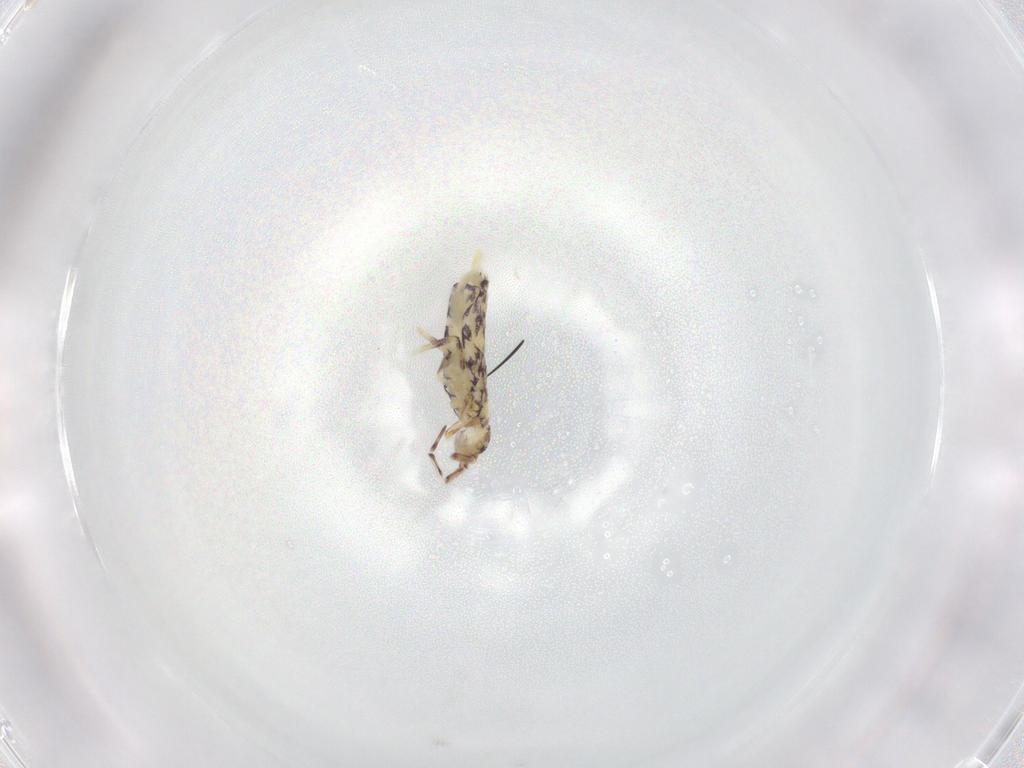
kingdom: Animalia
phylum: Arthropoda
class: Collembola
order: Entomobryomorpha
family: Entomobryidae
